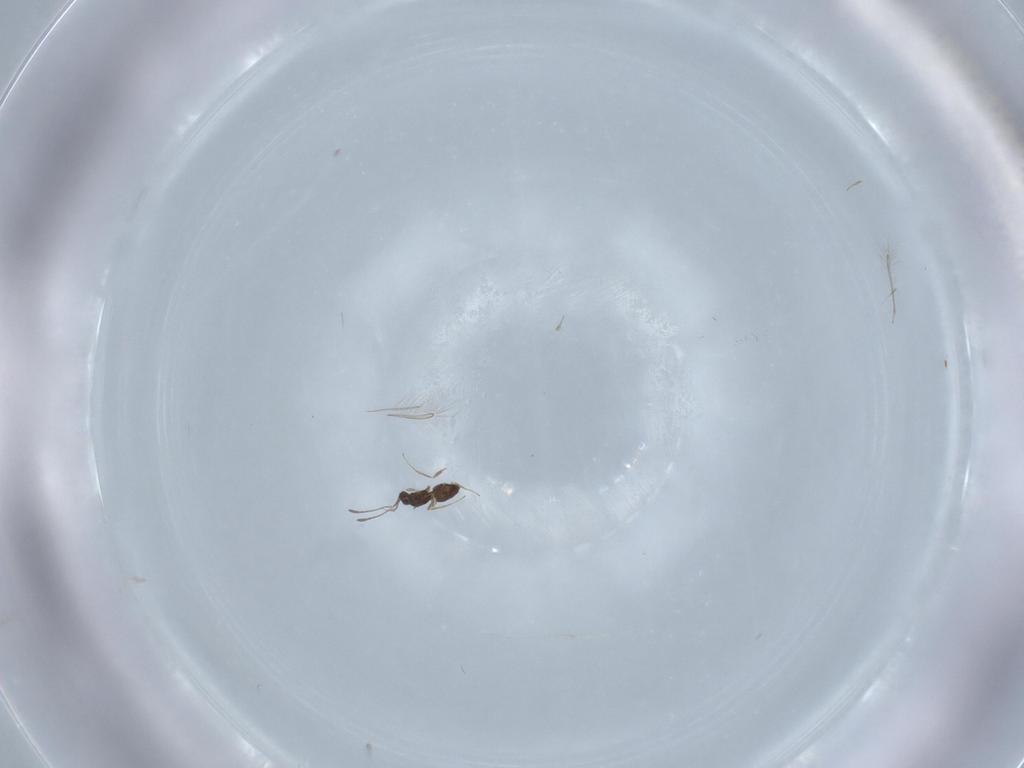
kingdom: Animalia
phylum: Arthropoda
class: Insecta
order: Hymenoptera
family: Mymaridae
